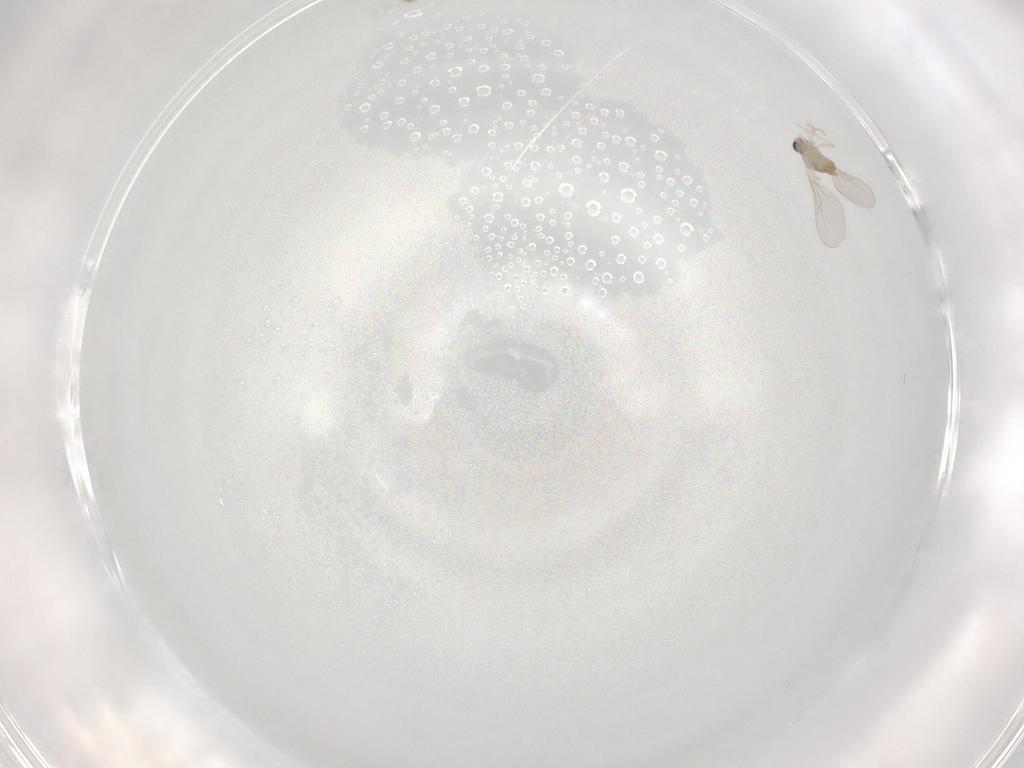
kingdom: Animalia
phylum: Arthropoda
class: Insecta
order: Diptera
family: Cecidomyiidae
